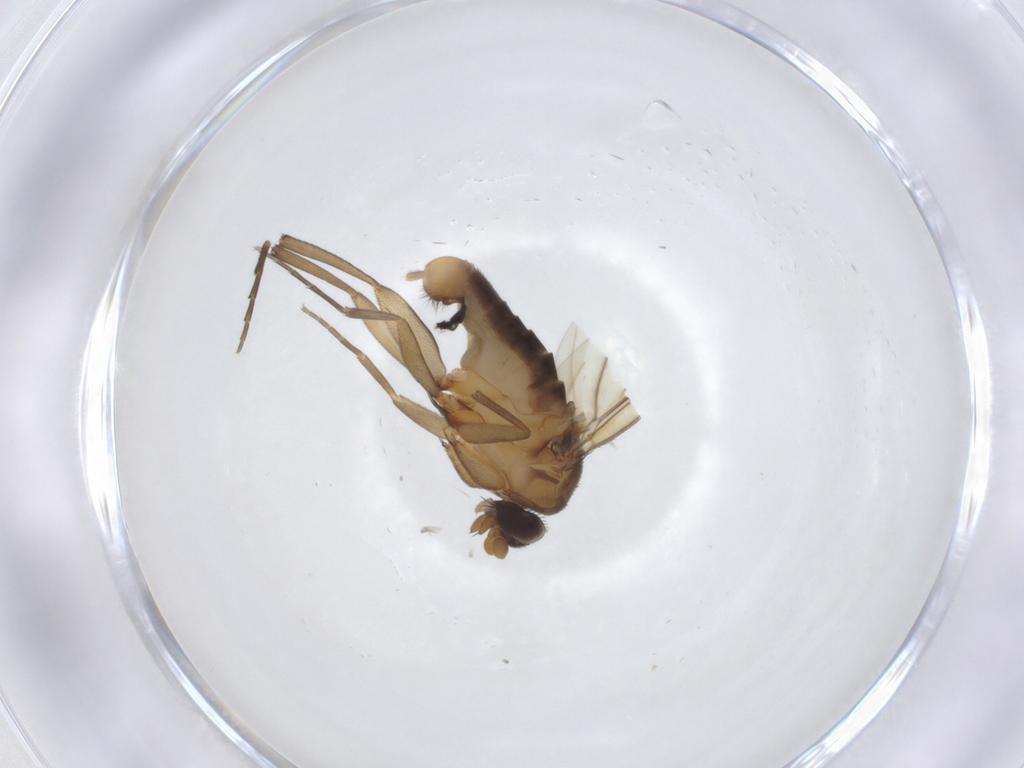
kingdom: Animalia
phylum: Arthropoda
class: Insecta
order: Diptera
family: Phoridae
